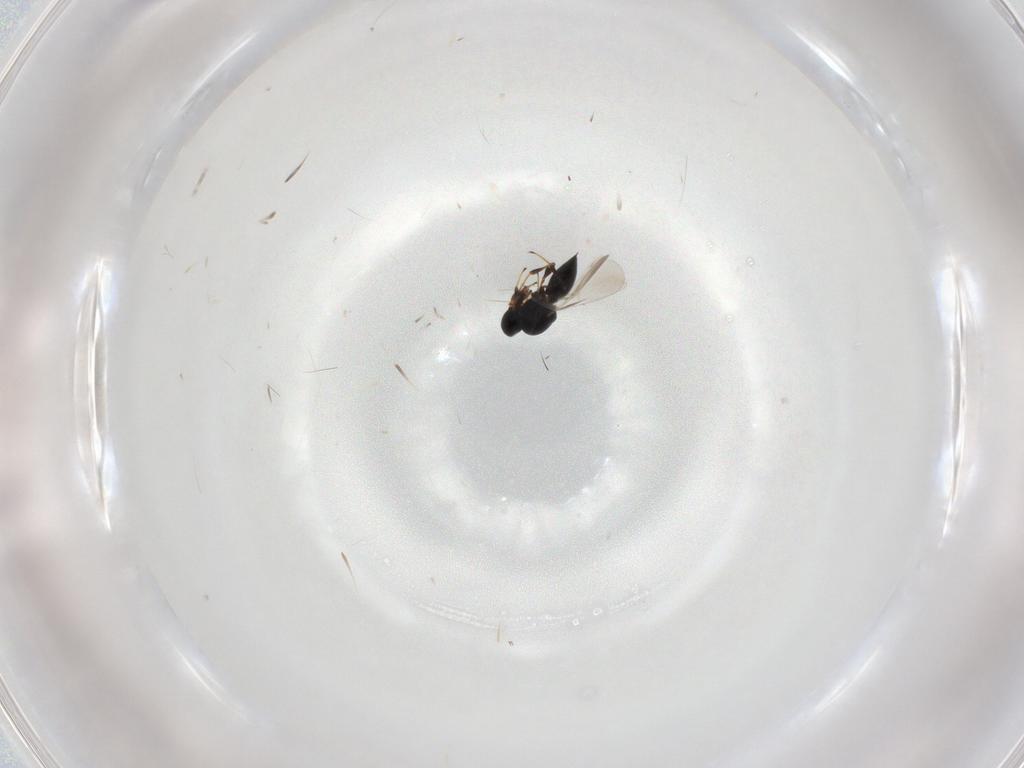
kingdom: Animalia
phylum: Arthropoda
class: Insecta
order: Hymenoptera
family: Platygastridae
